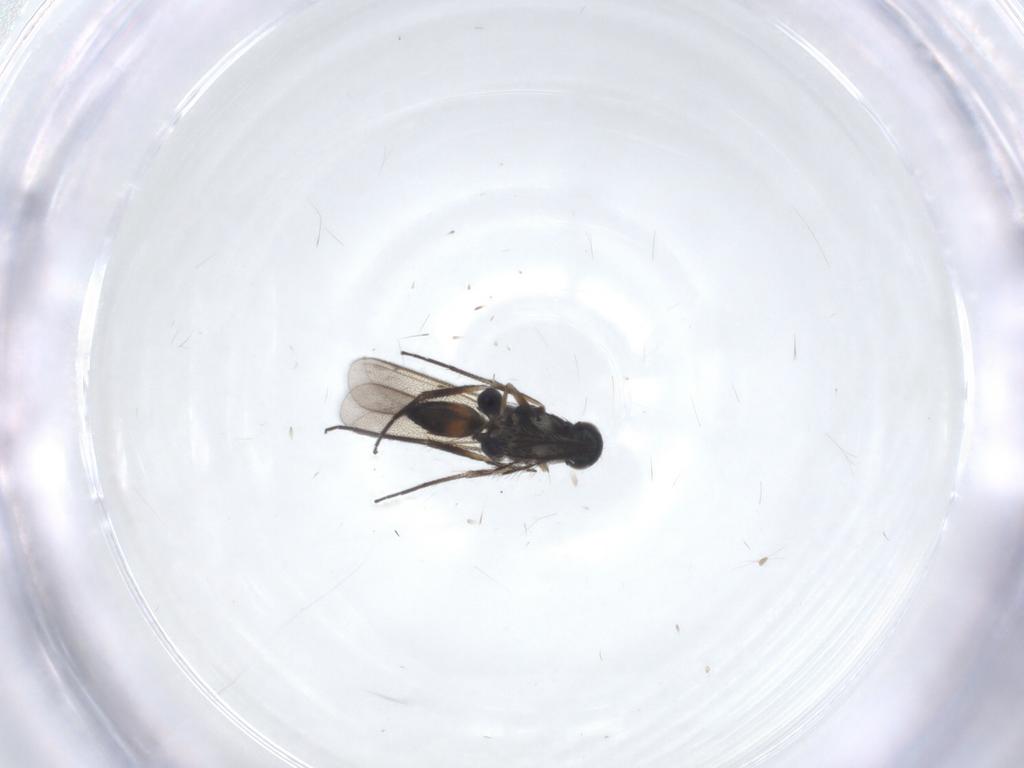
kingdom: Animalia
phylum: Arthropoda
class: Insecta
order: Hymenoptera
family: Eulophidae
